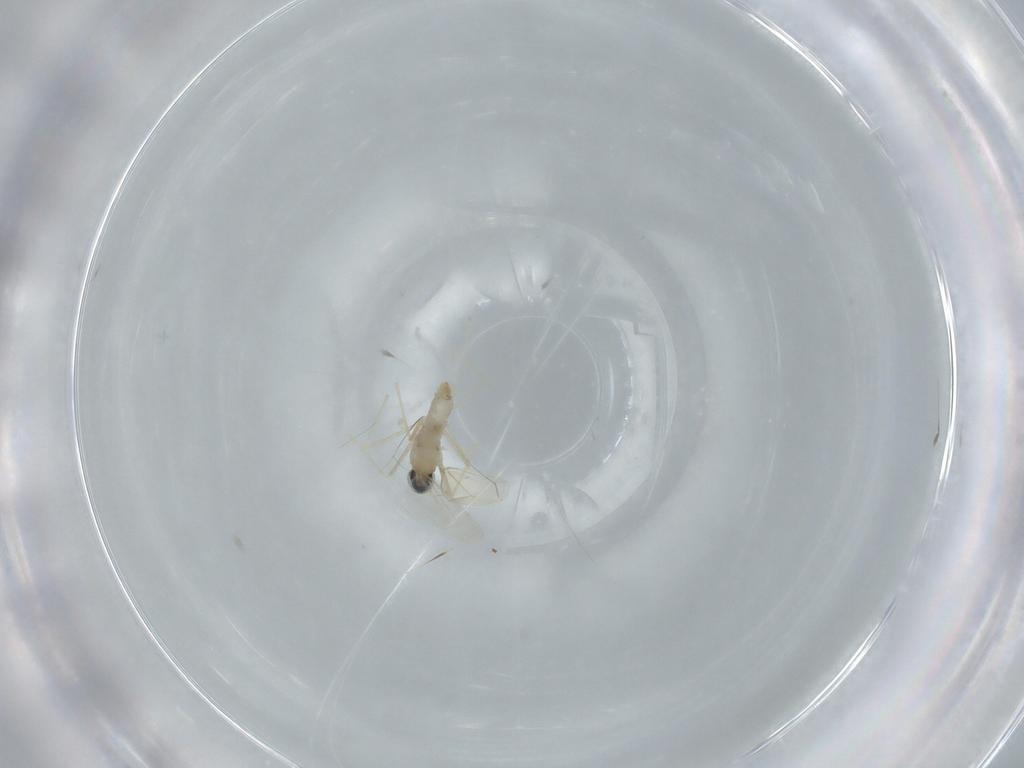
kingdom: Animalia
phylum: Arthropoda
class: Insecta
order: Diptera
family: Cecidomyiidae
